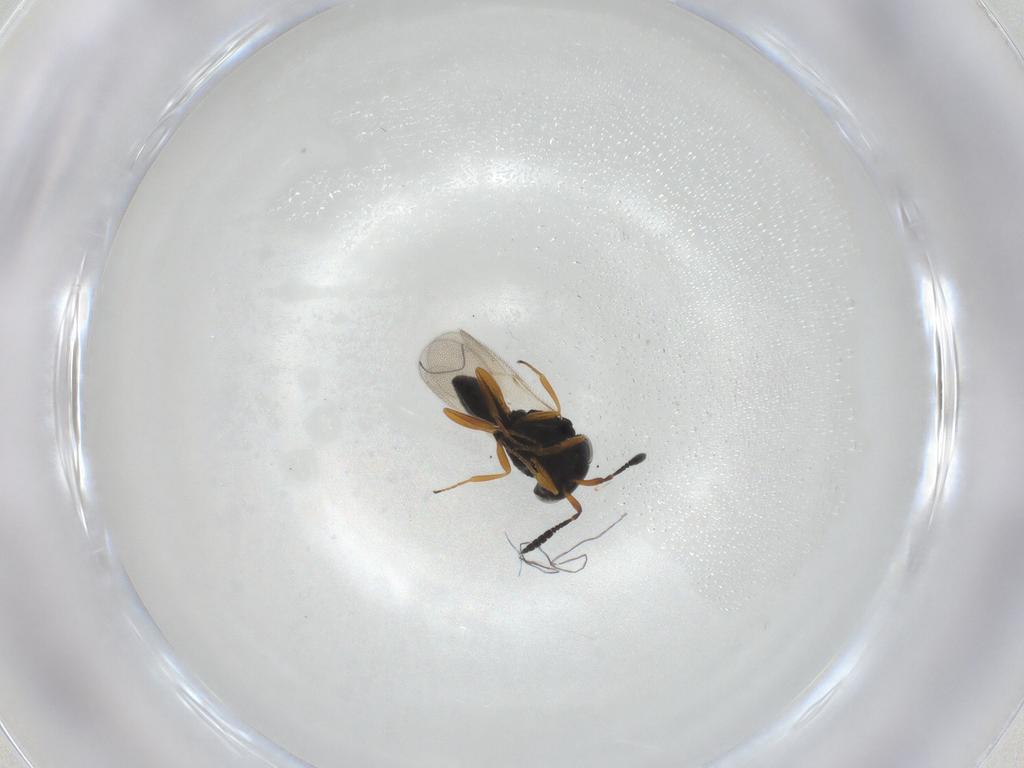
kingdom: Animalia
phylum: Arthropoda
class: Insecta
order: Hymenoptera
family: Scelionidae
